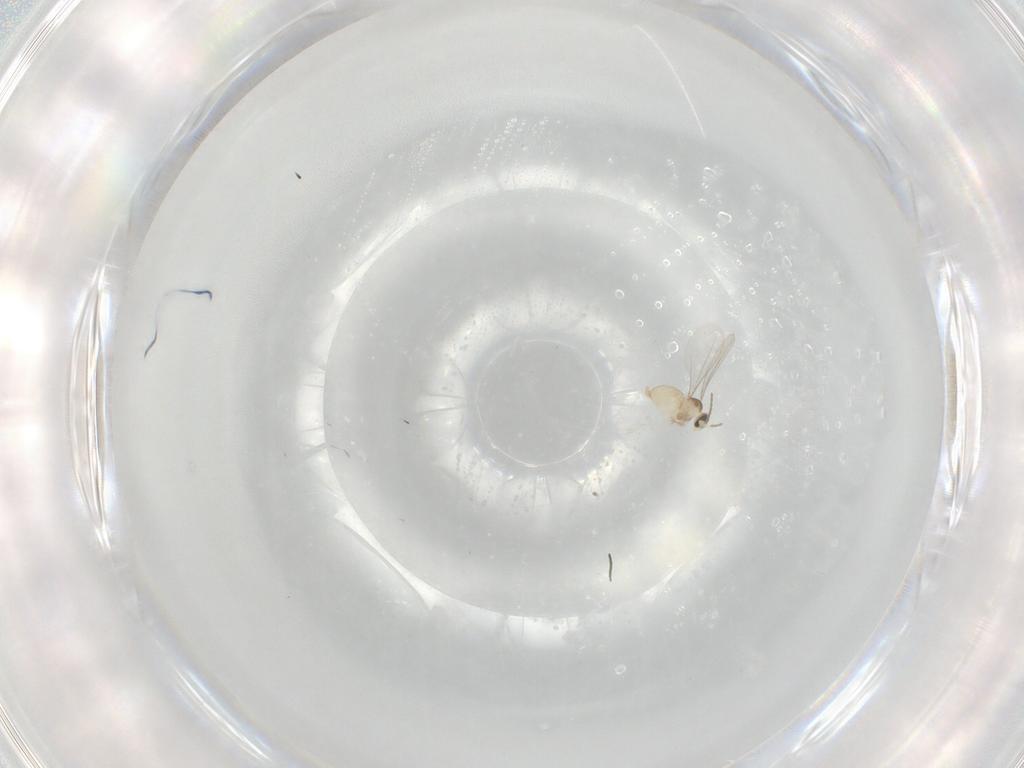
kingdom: Animalia
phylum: Arthropoda
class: Insecta
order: Diptera
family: Cecidomyiidae
